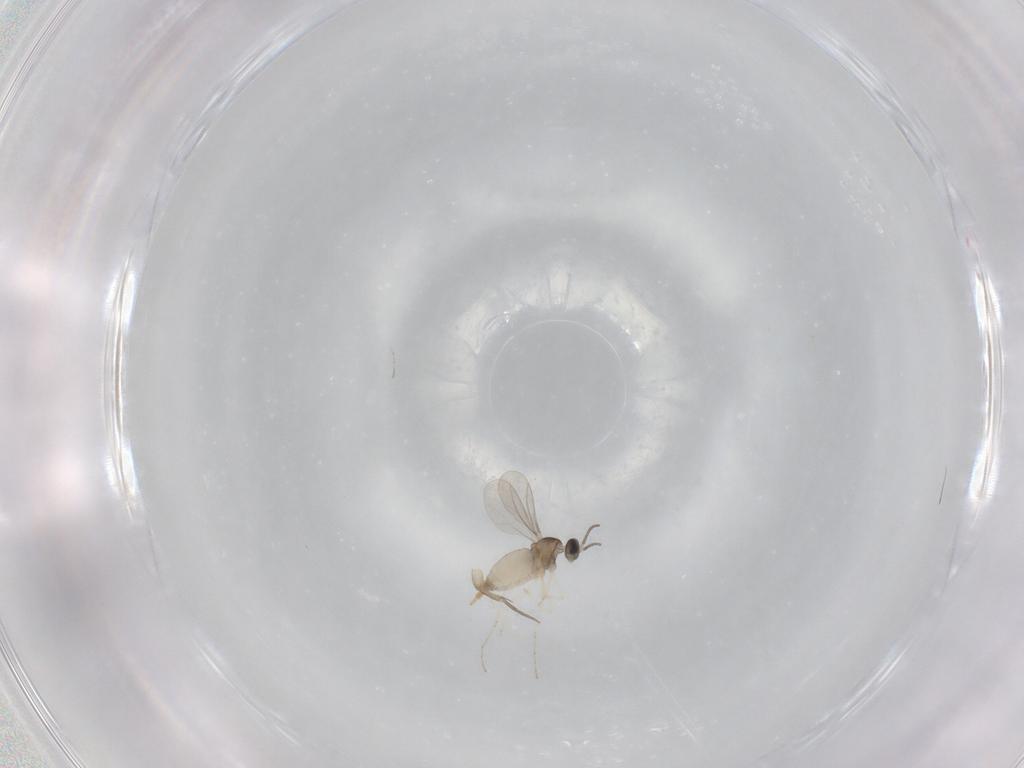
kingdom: Animalia
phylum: Arthropoda
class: Insecta
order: Diptera
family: Cecidomyiidae
